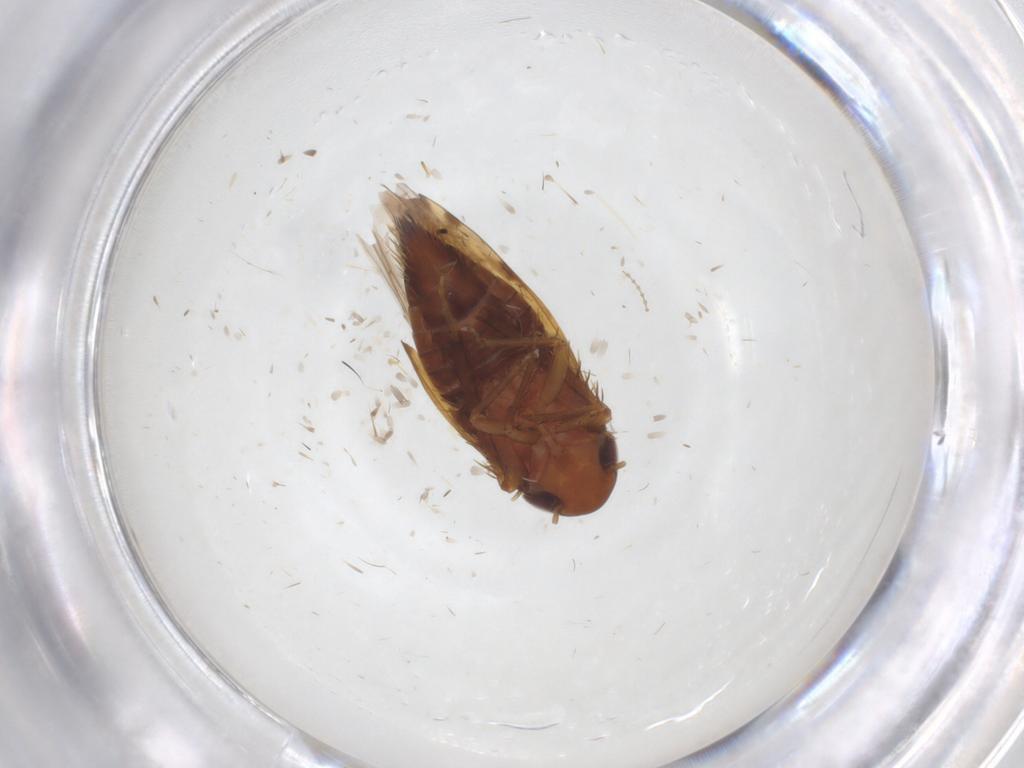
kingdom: Animalia
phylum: Arthropoda
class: Insecta
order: Hemiptera
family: Cicadellidae
